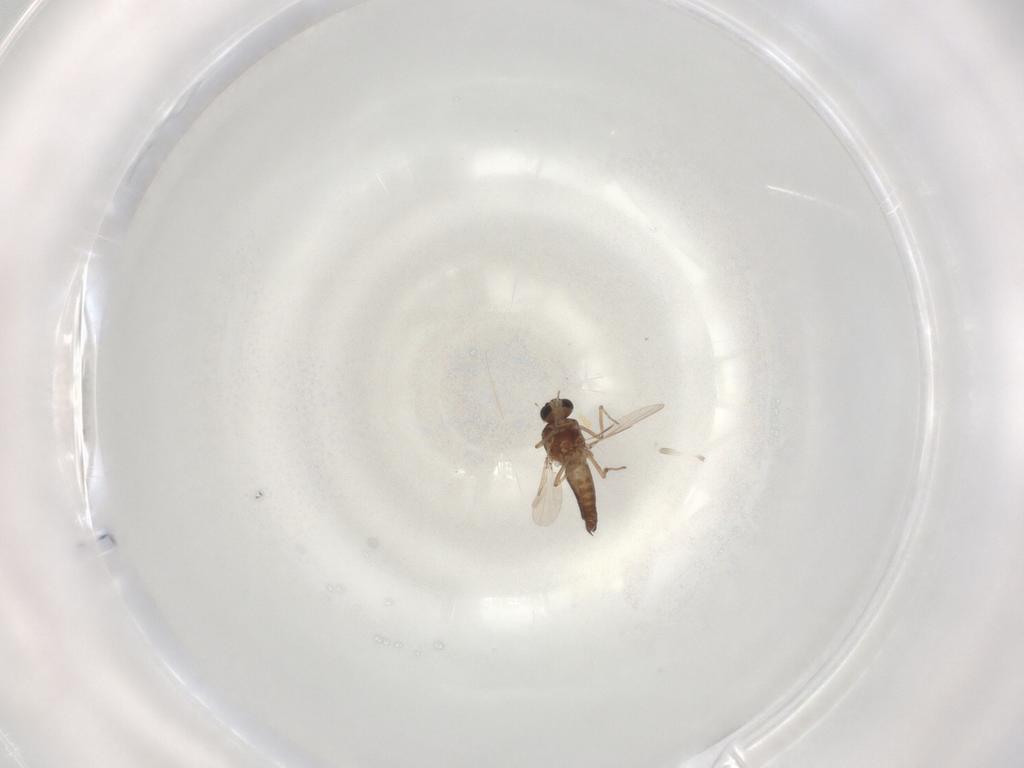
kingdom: Animalia
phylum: Arthropoda
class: Insecta
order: Diptera
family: Ceratopogonidae
